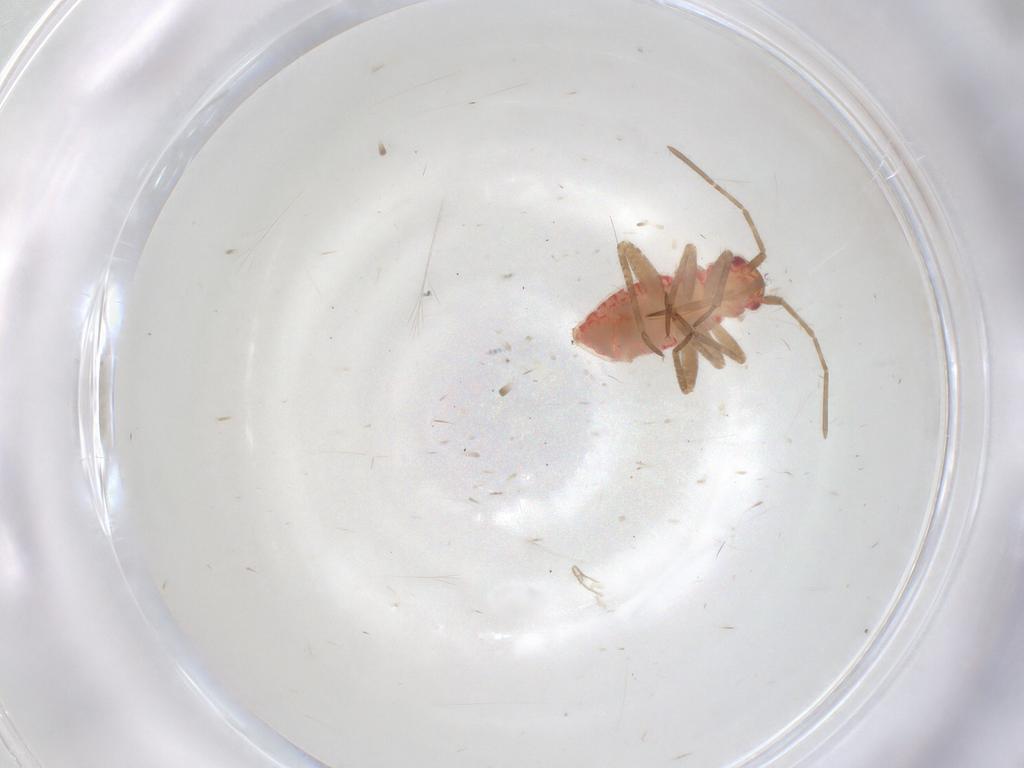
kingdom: Animalia
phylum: Arthropoda
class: Insecta
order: Hemiptera
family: Miridae
